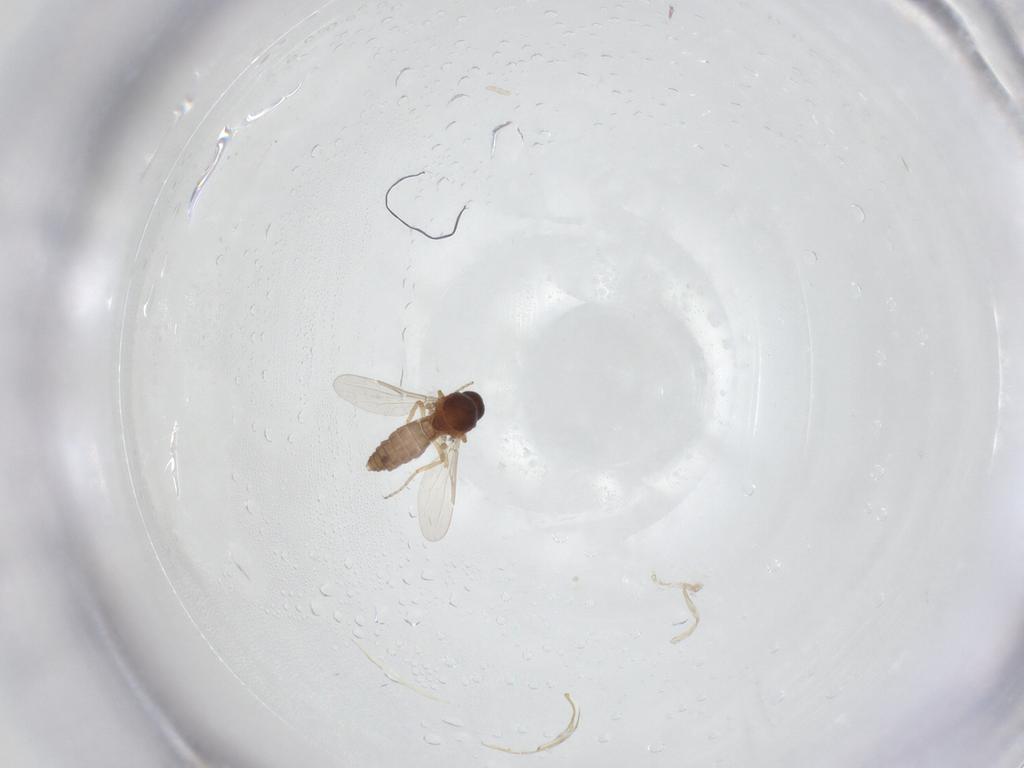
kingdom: Animalia
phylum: Arthropoda
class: Insecta
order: Diptera
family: Ceratopogonidae
